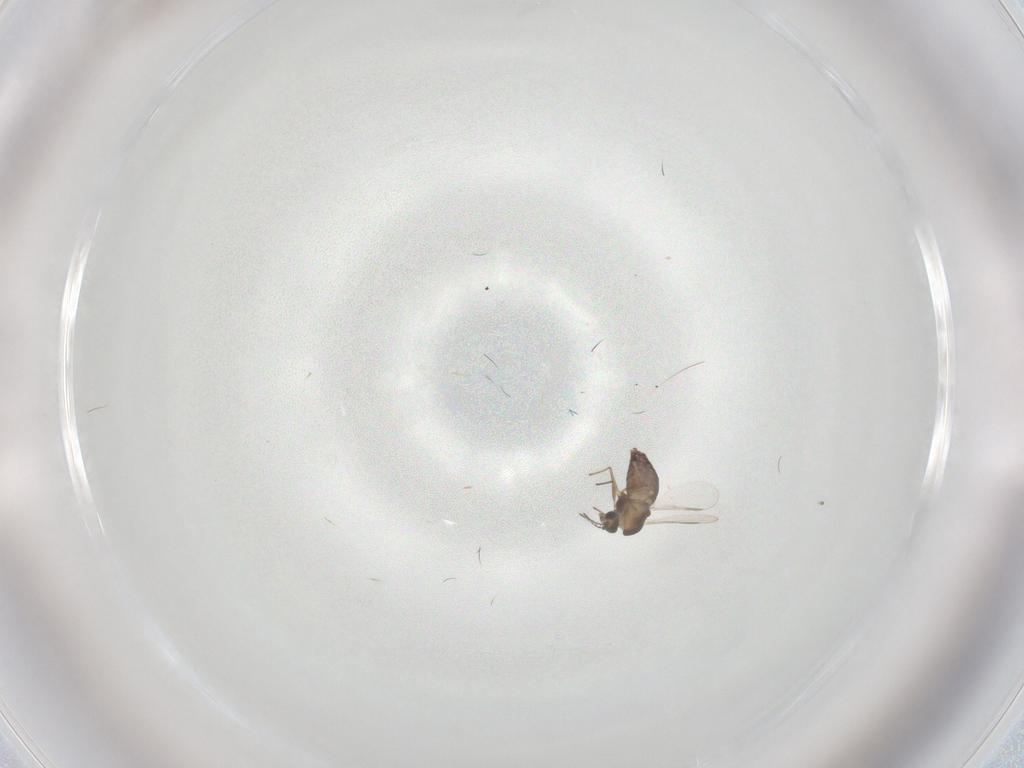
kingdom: Animalia
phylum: Arthropoda
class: Insecta
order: Diptera
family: Chironomidae
